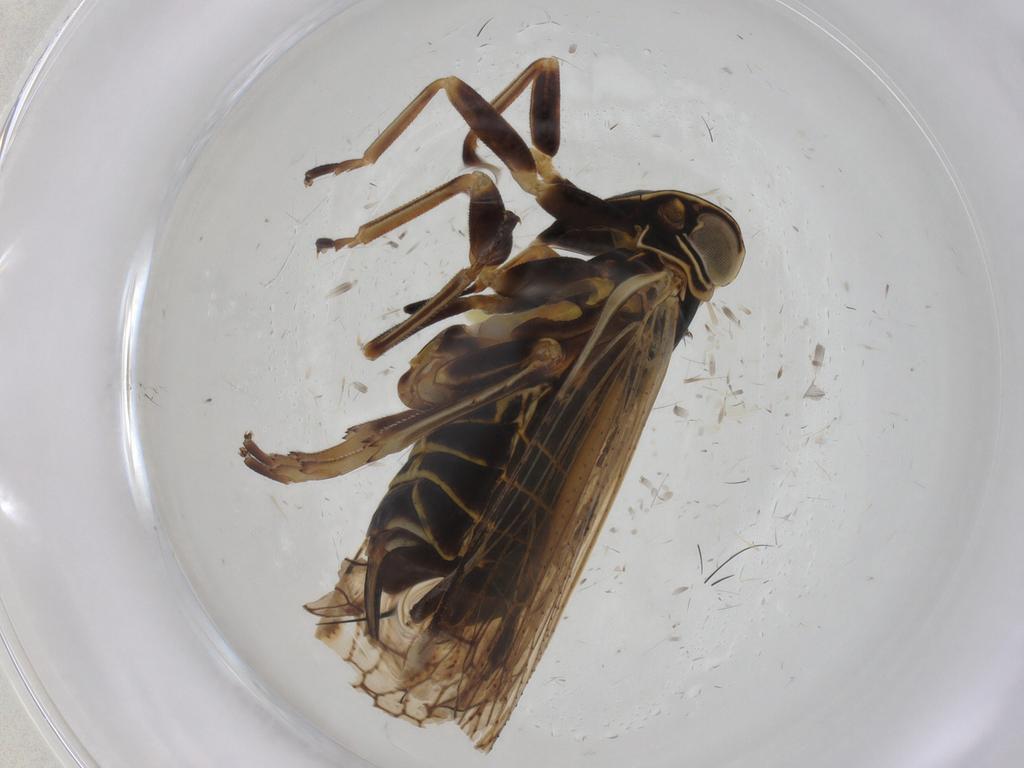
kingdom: Animalia
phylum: Arthropoda
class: Insecta
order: Hemiptera
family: Cixiidae
